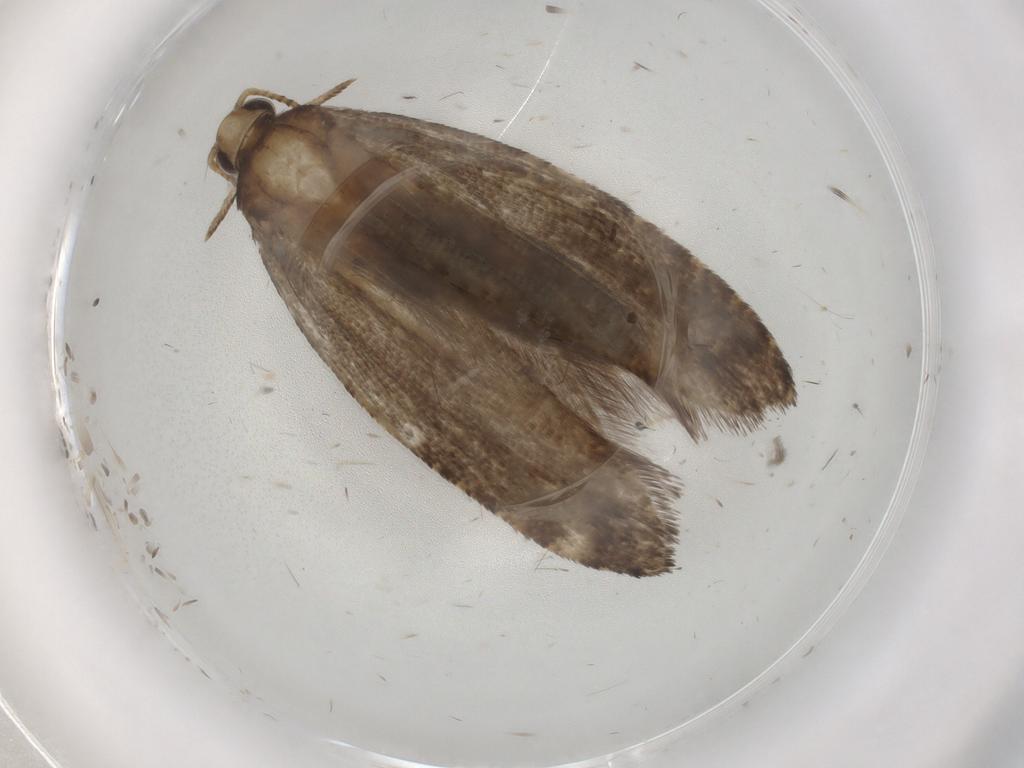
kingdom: Animalia
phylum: Arthropoda
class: Insecta
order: Lepidoptera
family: Glyphipterigidae
